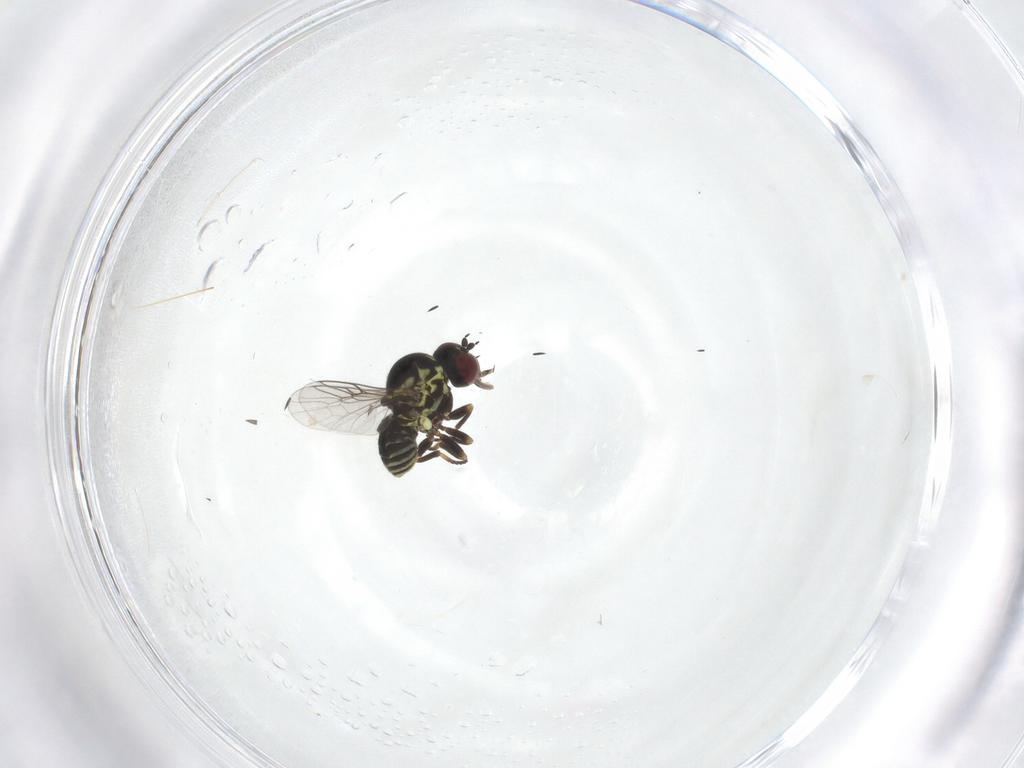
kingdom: Animalia
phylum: Arthropoda
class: Insecta
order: Diptera
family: Mythicomyiidae
